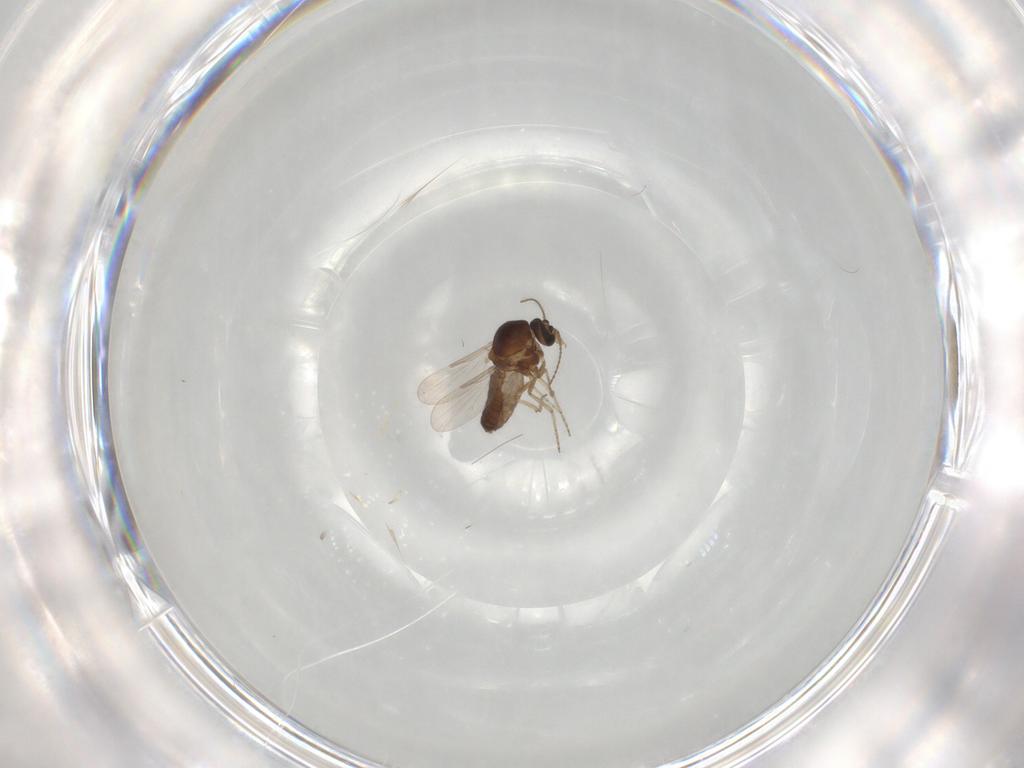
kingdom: Animalia
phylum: Arthropoda
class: Insecta
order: Diptera
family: Ceratopogonidae
